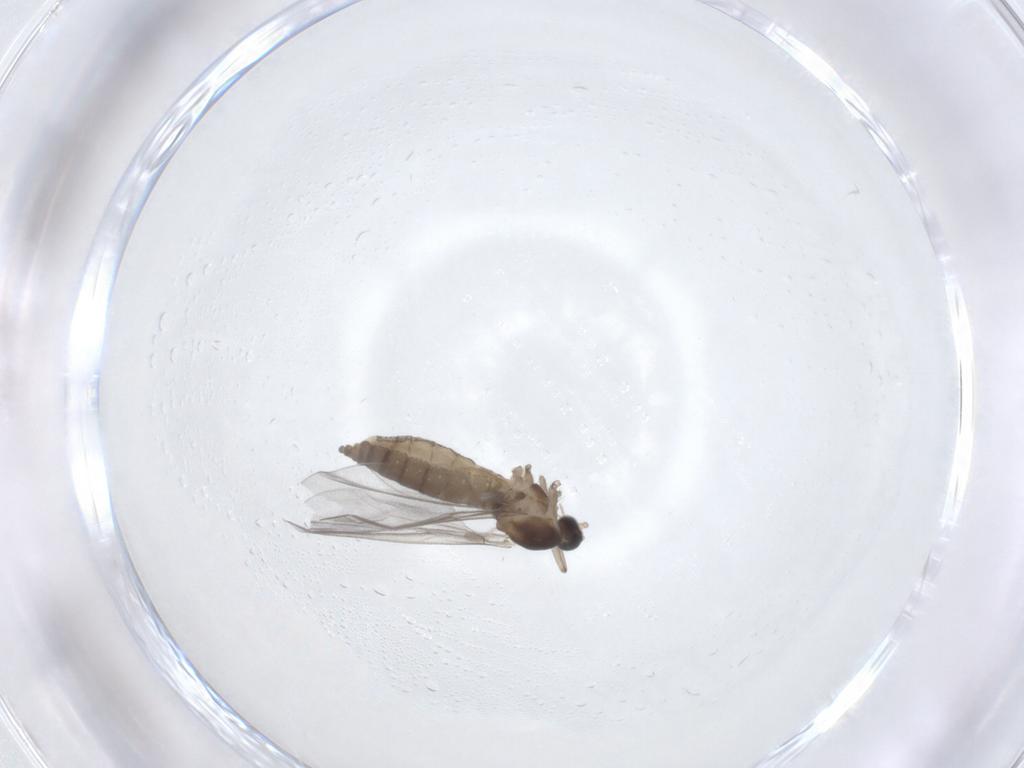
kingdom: Animalia
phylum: Arthropoda
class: Insecta
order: Diptera
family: Cecidomyiidae
